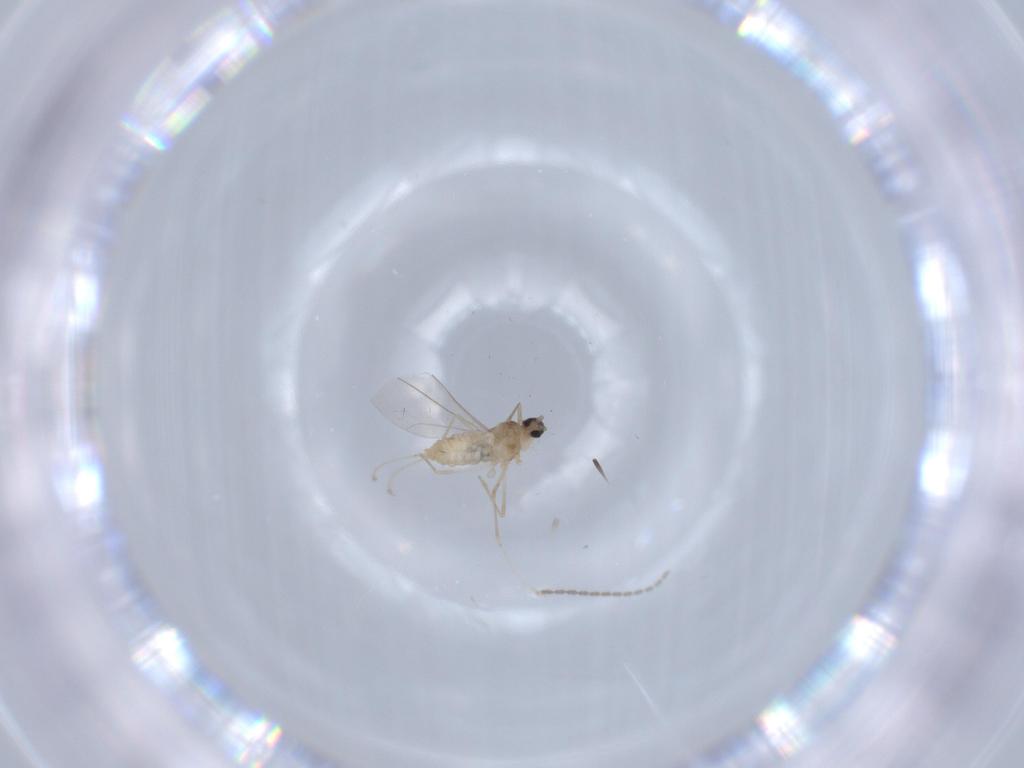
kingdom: Animalia
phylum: Arthropoda
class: Insecta
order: Diptera
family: Cecidomyiidae
